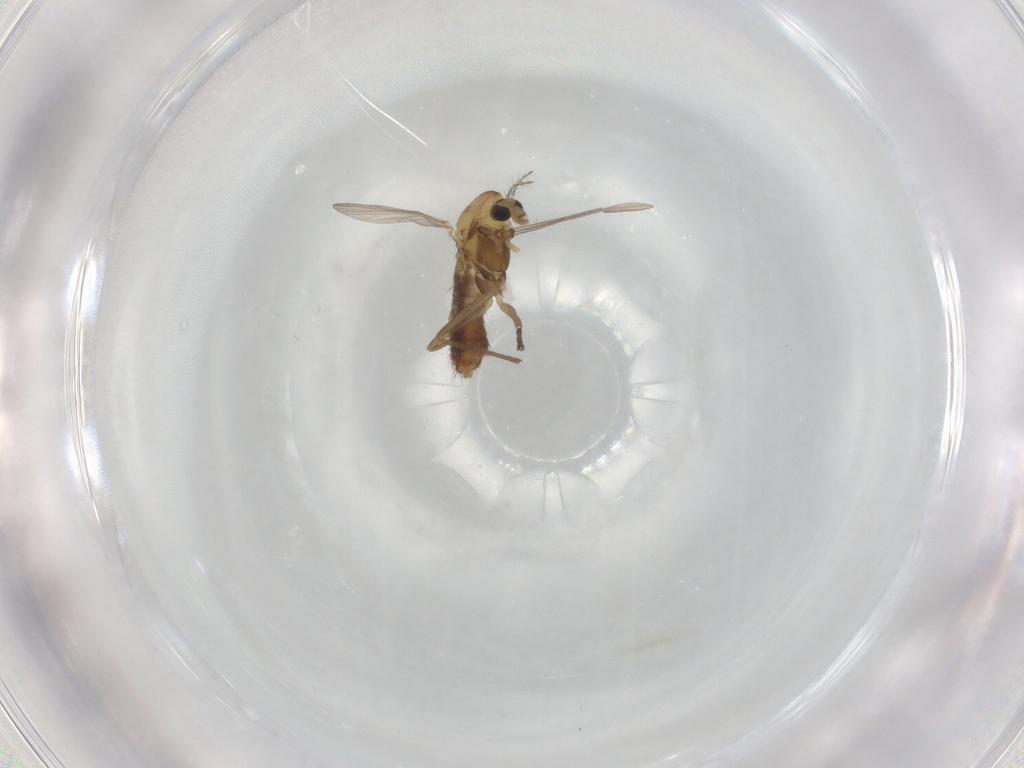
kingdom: Animalia
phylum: Arthropoda
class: Insecta
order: Diptera
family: Chironomidae
